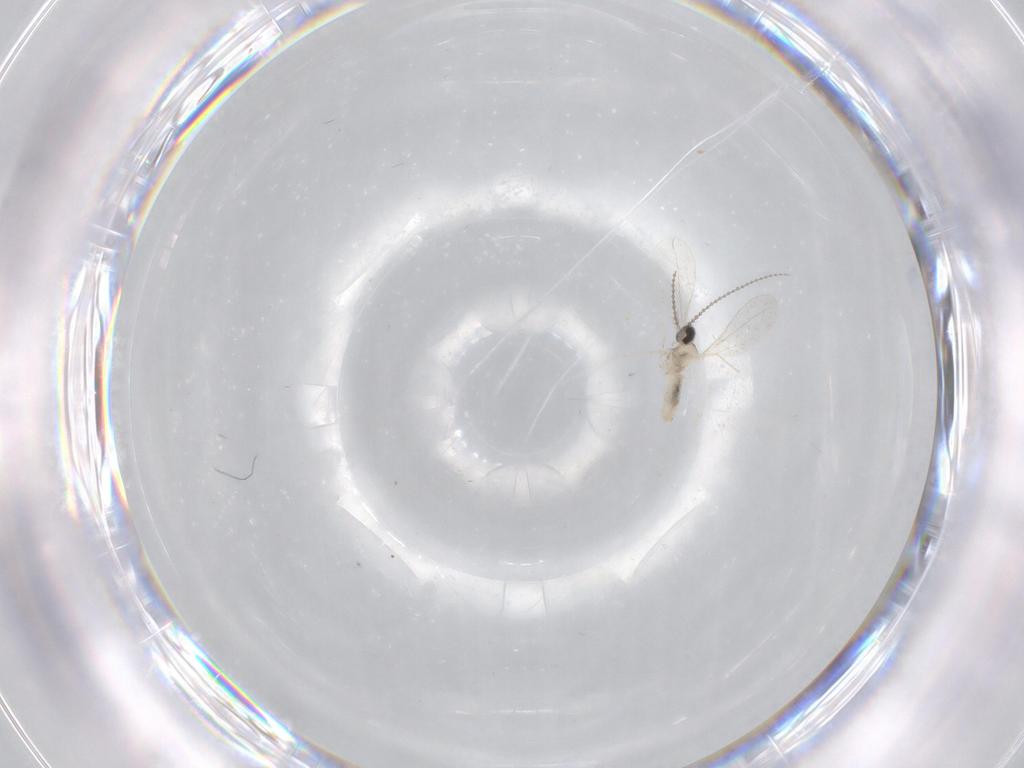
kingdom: Animalia
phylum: Arthropoda
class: Insecta
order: Diptera
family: Cecidomyiidae
